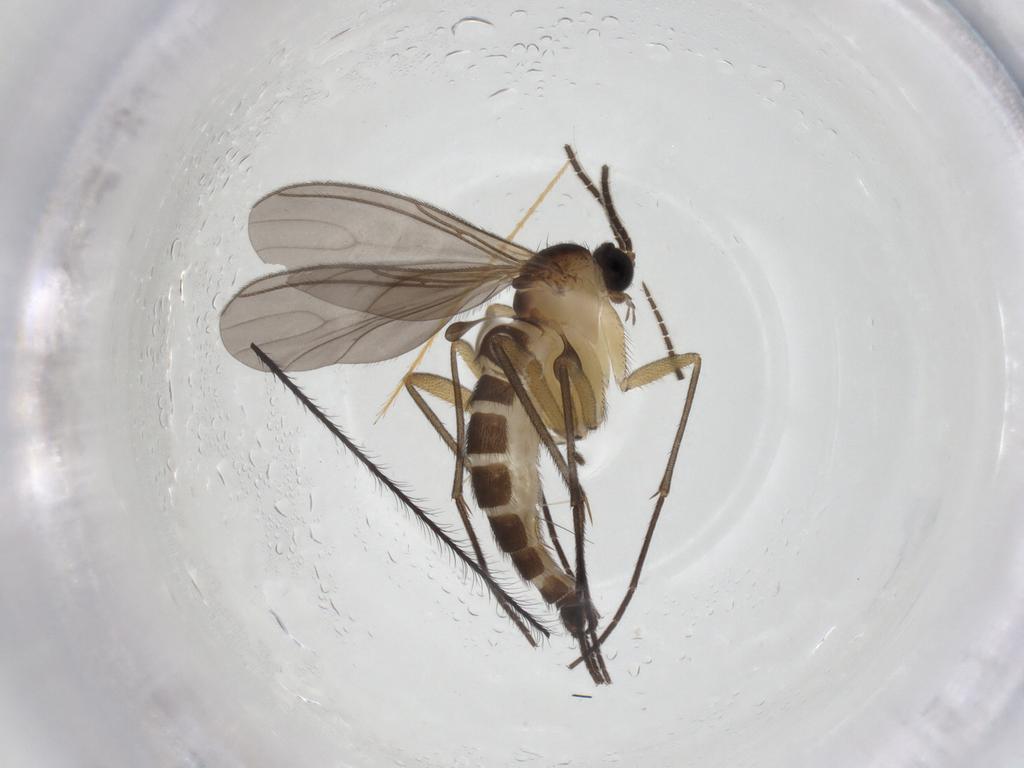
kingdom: Animalia
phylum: Arthropoda
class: Insecta
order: Diptera
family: Sciaridae
